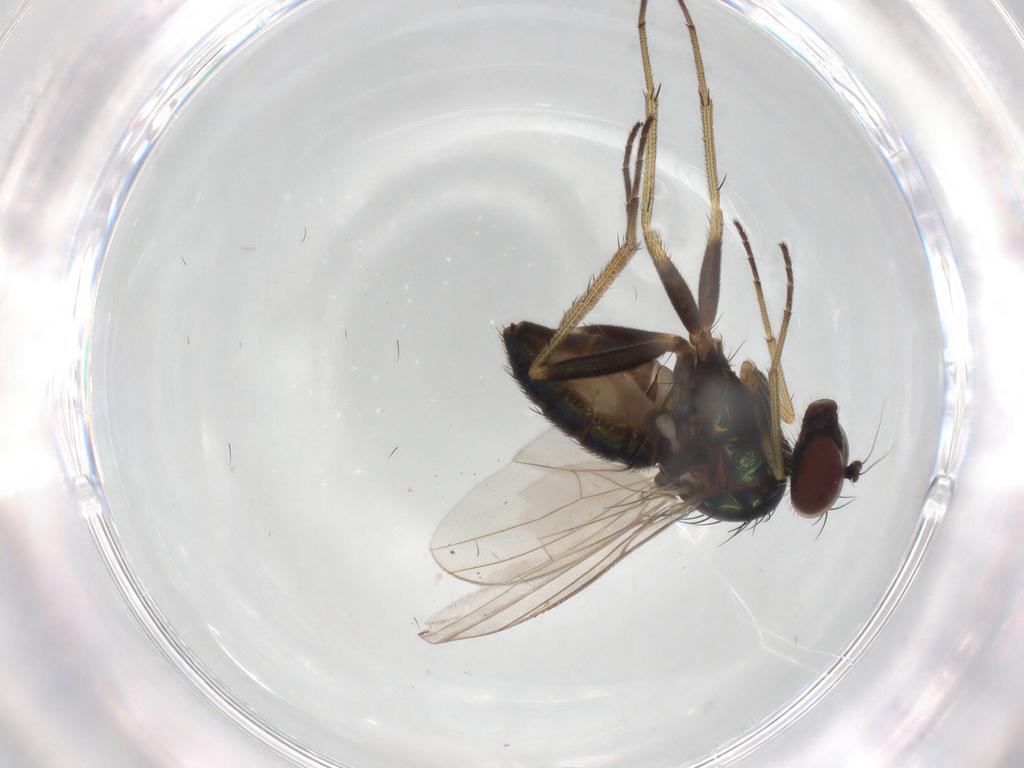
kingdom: Animalia
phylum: Arthropoda
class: Insecta
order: Diptera
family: Dolichopodidae
